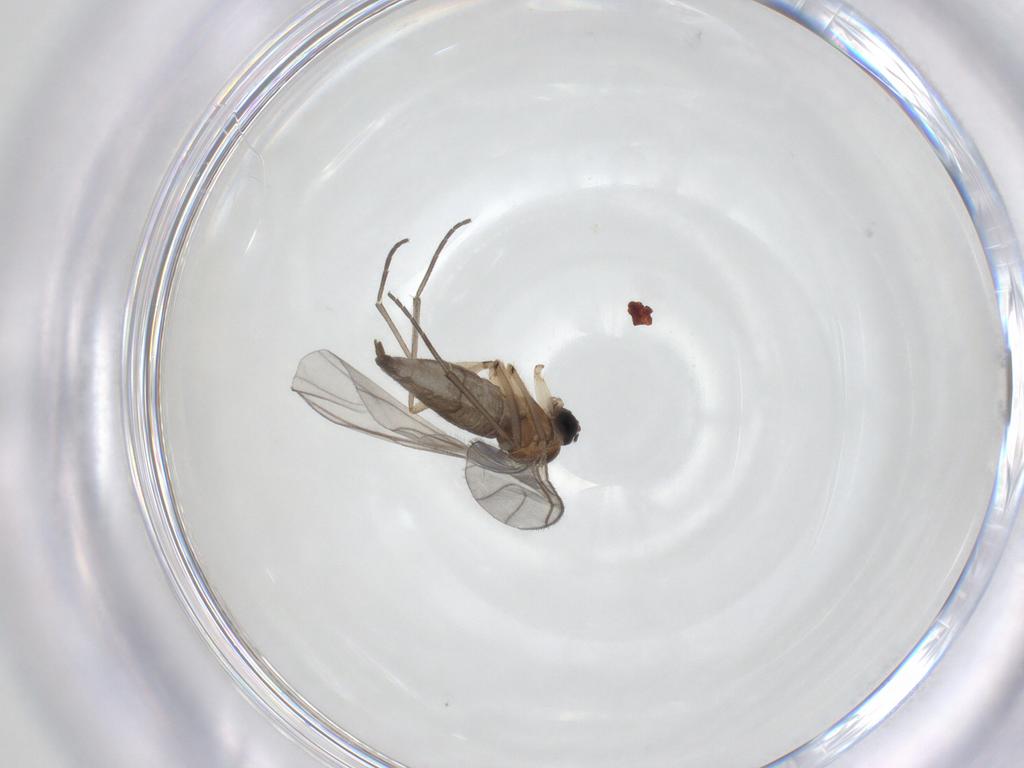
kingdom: Animalia
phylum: Arthropoda
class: Insecta
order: Diptera
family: Sciaridae
